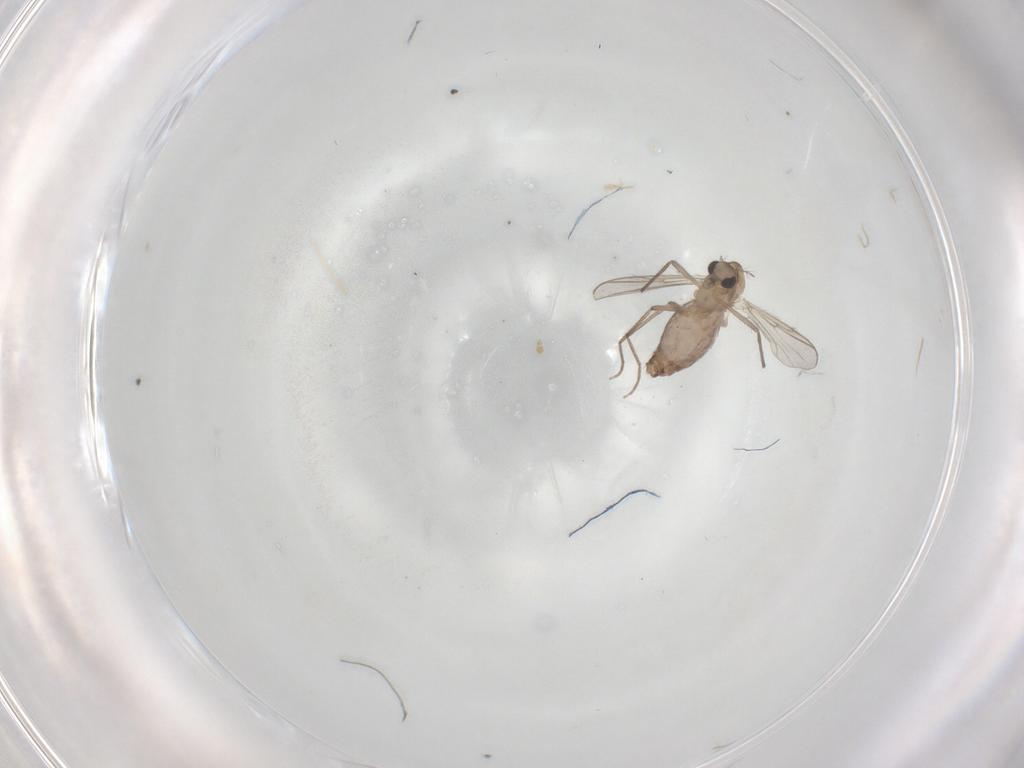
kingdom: Animalia
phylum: Arthropoda
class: Insecta
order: Diptera
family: Chironomidae
